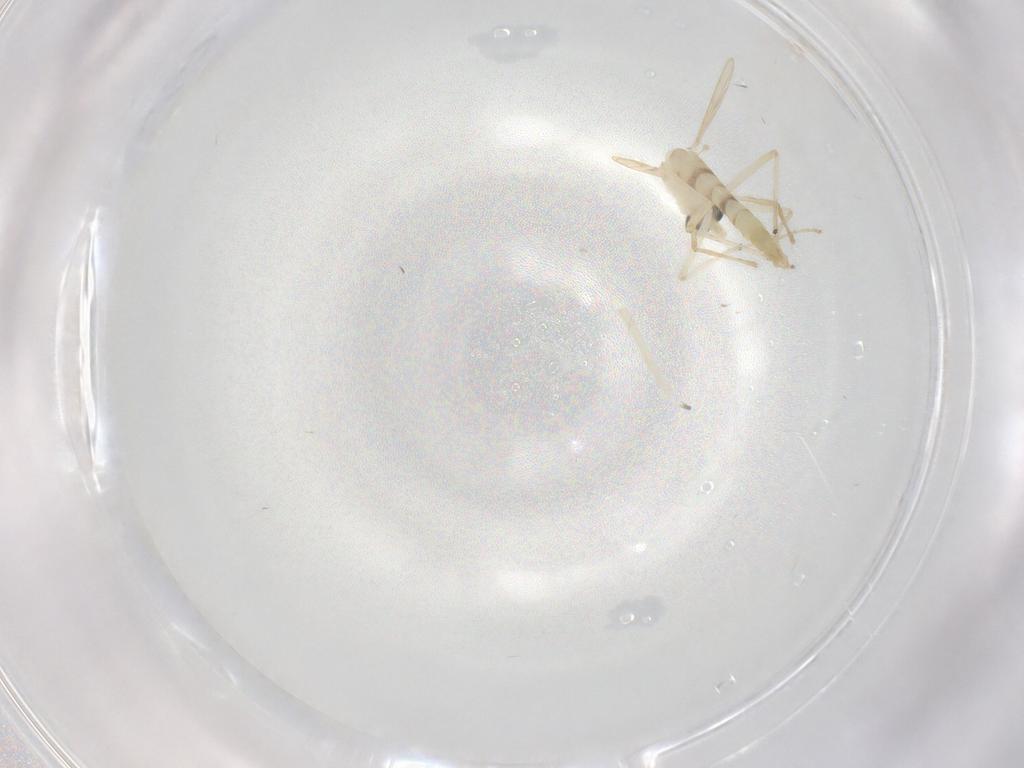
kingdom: Animalia
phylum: Arthropoda
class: Insecta
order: Diptera
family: Chironomidae
